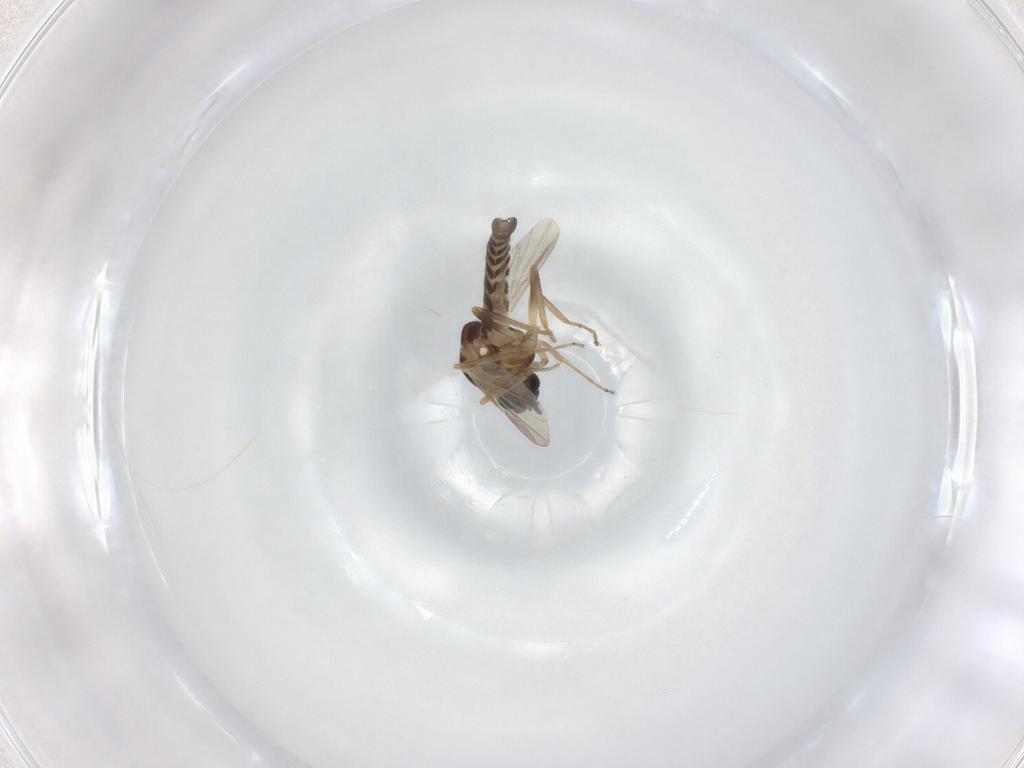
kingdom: Animalia
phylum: Arthropoda
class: Insecta
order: Diptera
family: Ceratopogonidae
